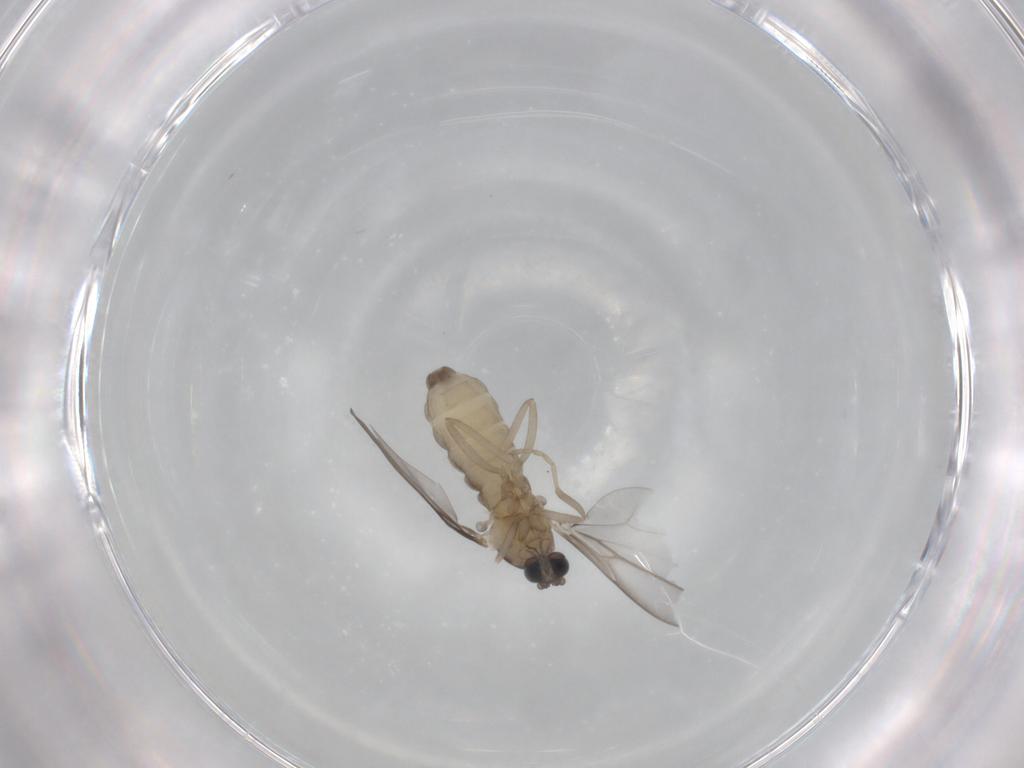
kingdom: Animalia
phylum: Arthropoda
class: Insecta
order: Diptera
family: Cecidomyiidae
